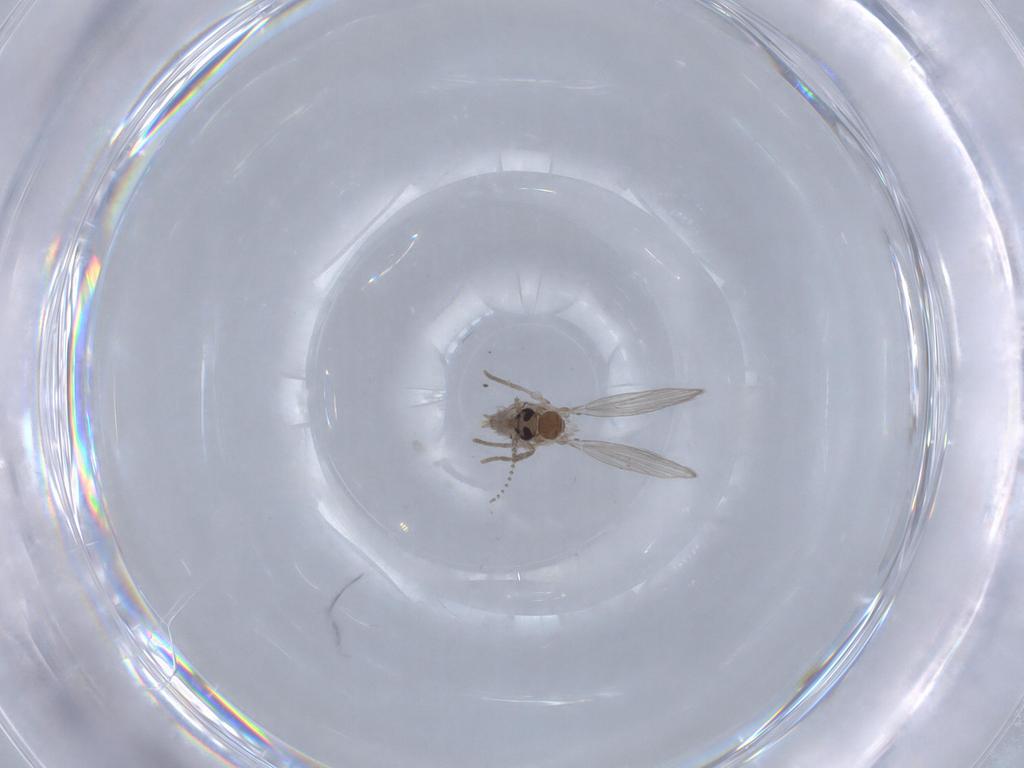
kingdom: Animalia
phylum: Arthropoda
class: Insecta
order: Diptera
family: Psychodidae
